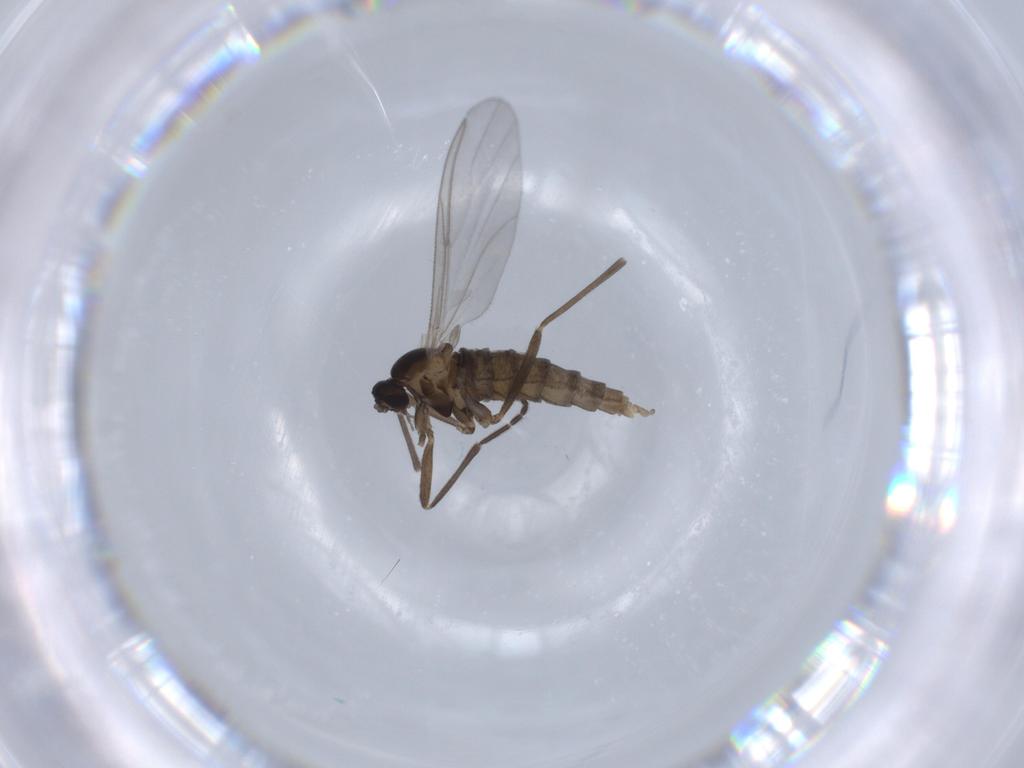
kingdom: Animalia
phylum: Arthropoda
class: Insecta
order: Diptera
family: Cecidomyiidae
